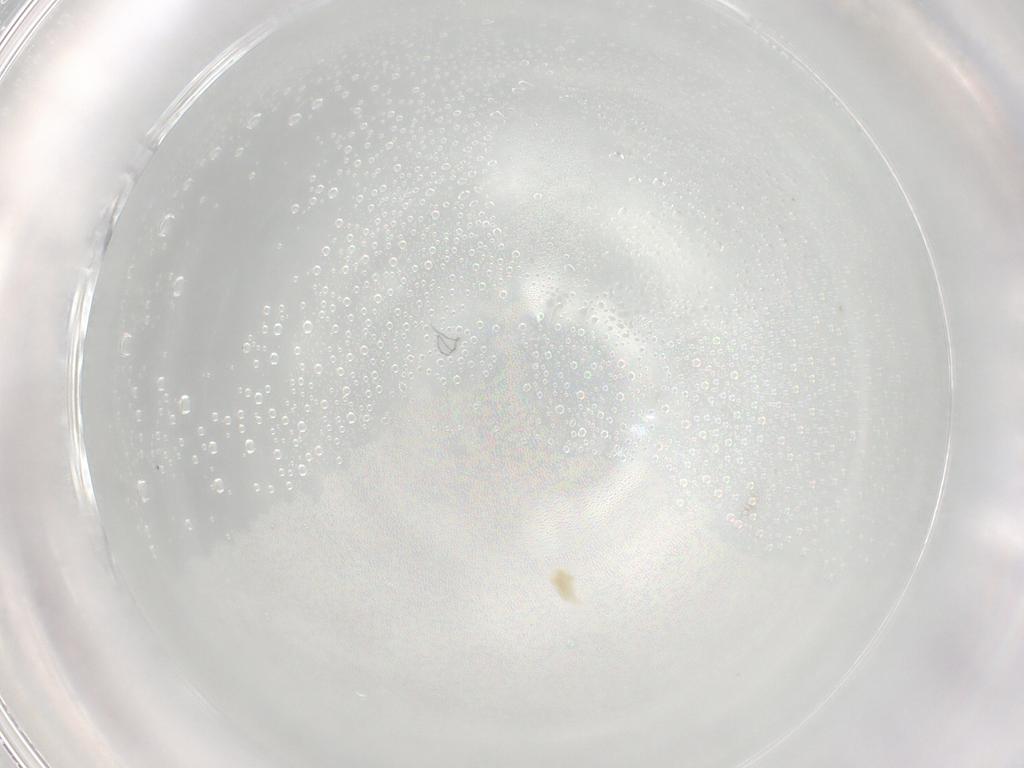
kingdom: Animalia
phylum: Arthropoda
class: Arachnida
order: Trombidiformes
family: Eupodidae
